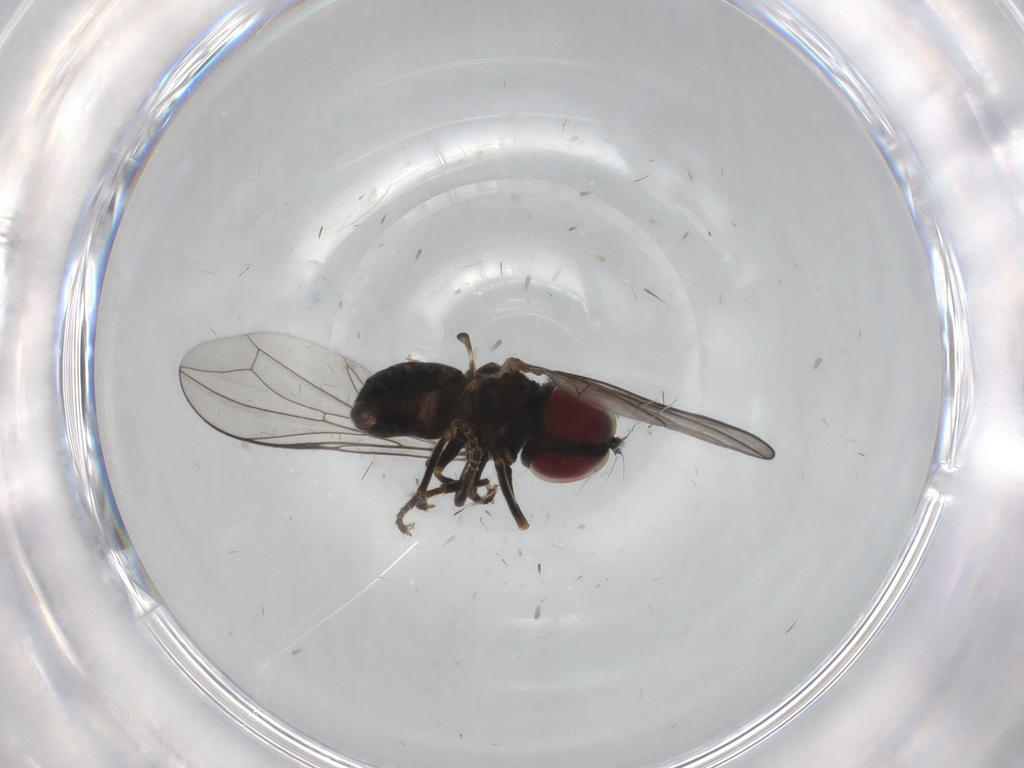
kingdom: Animalia
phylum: Arthropoda
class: Insecta
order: Diptera
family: Pipunculidae
